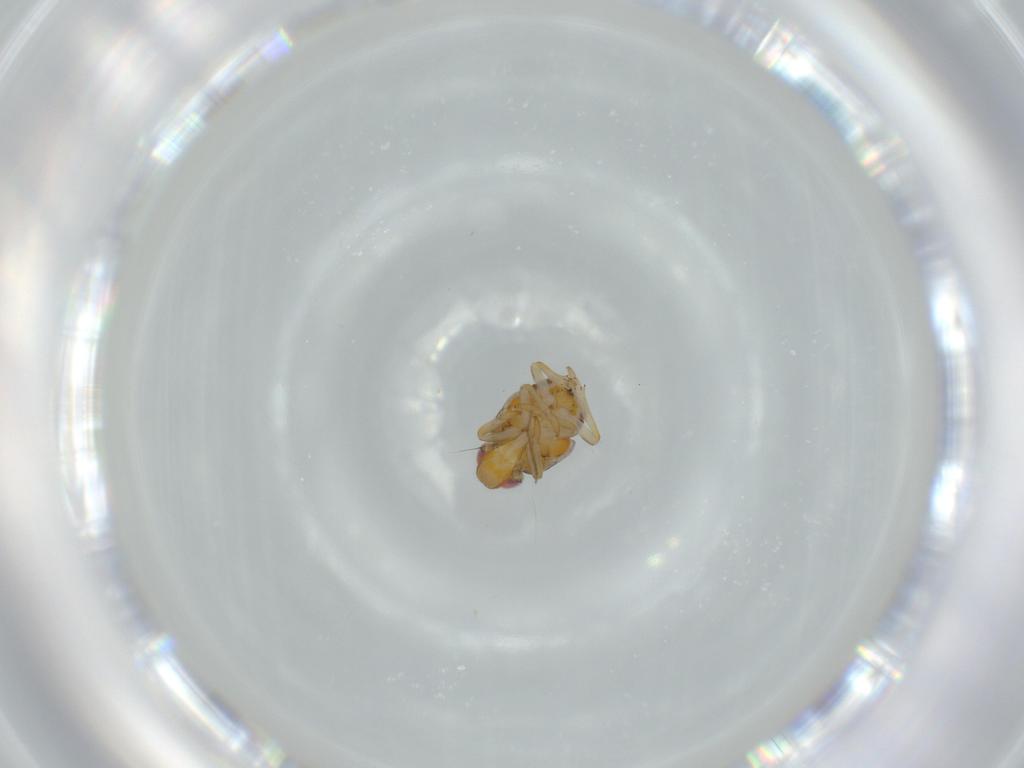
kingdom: Animalia
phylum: Arthropoda
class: Insecta
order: Hemiptera
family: Issidae
